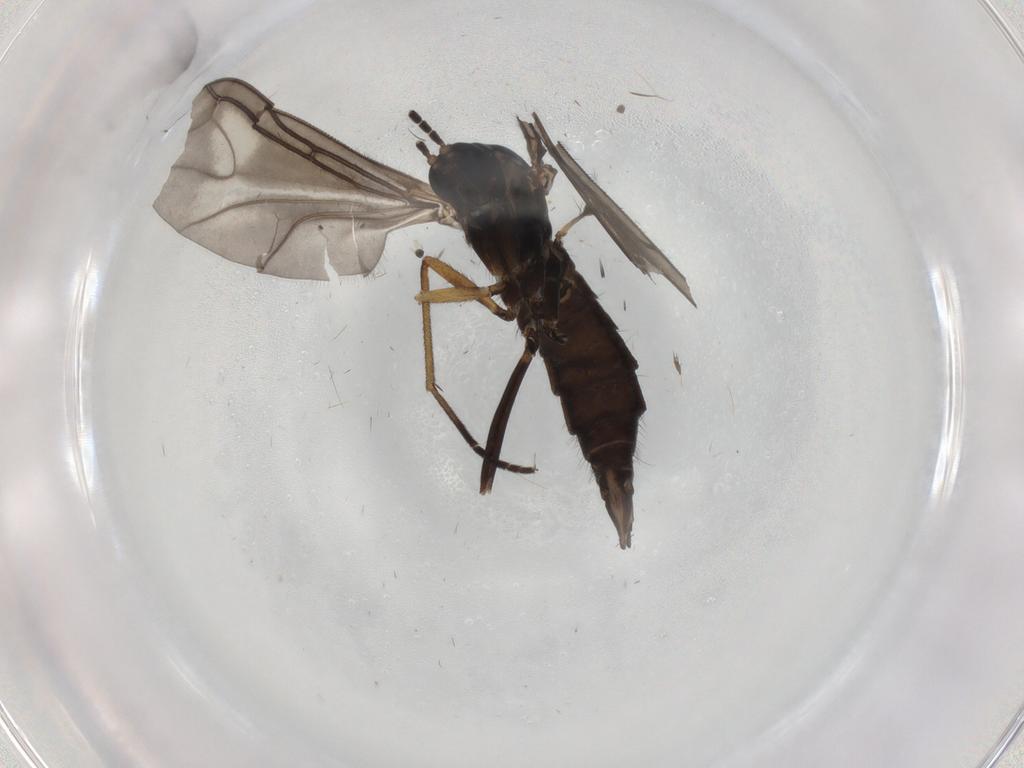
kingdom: Animalia
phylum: Arthropoda
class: Insecta
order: Diptera
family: Sciaridae
